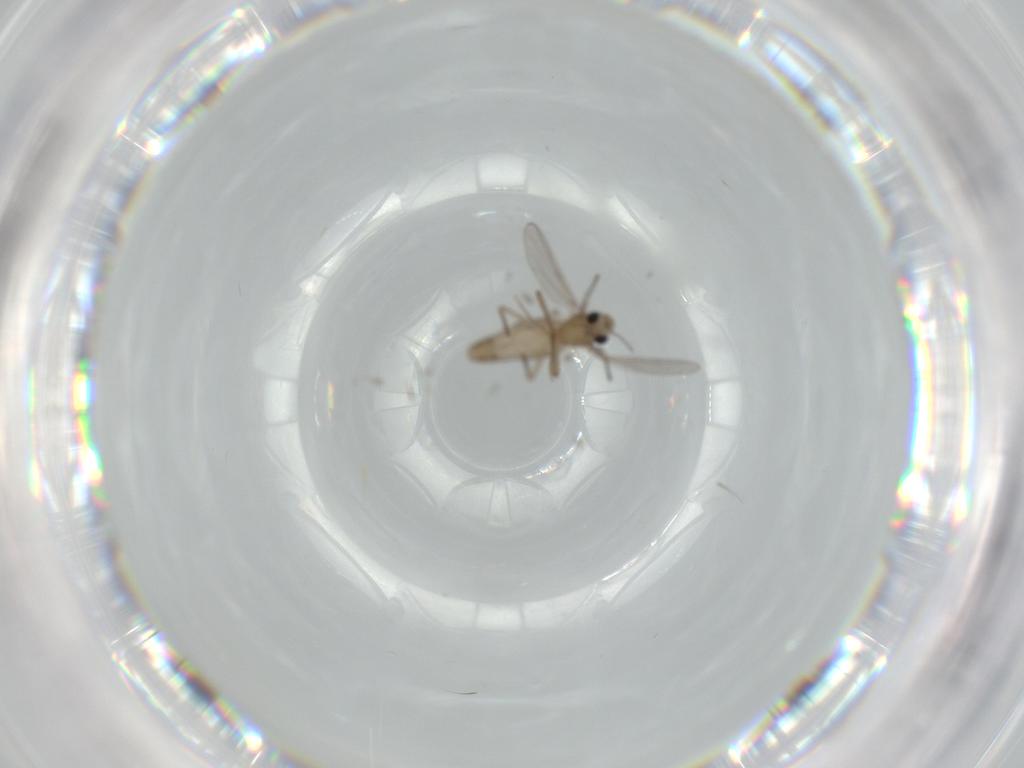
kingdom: Animalia
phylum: Arthropoda
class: Insecta
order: Diptera
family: Chironomidae
